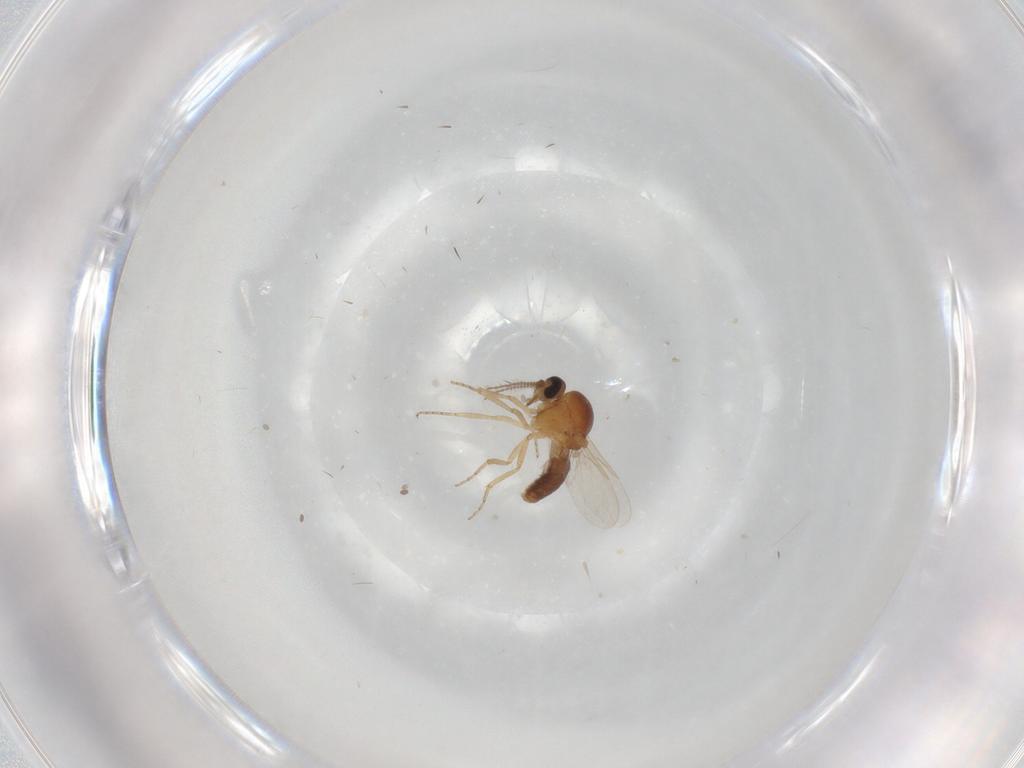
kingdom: Animalia
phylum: Arthropoda
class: Insecta
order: Diptera
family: Ceratopogonidae
